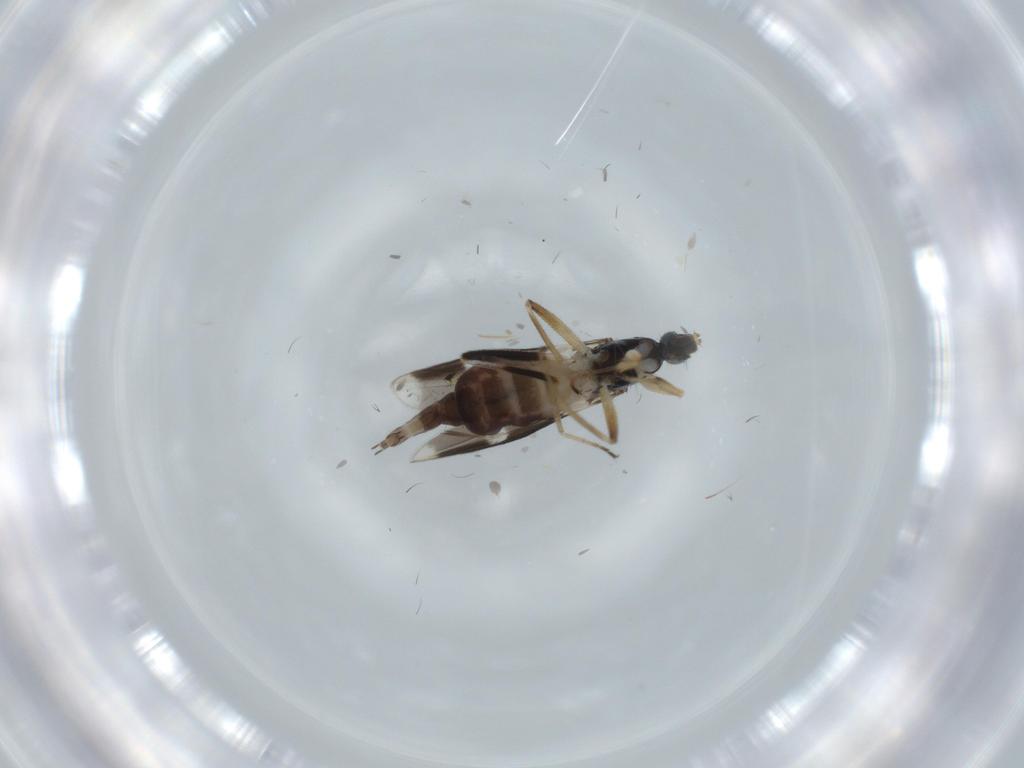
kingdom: Animalia
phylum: Arthropoda
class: Insecta
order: Diptera
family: Hybotidae
